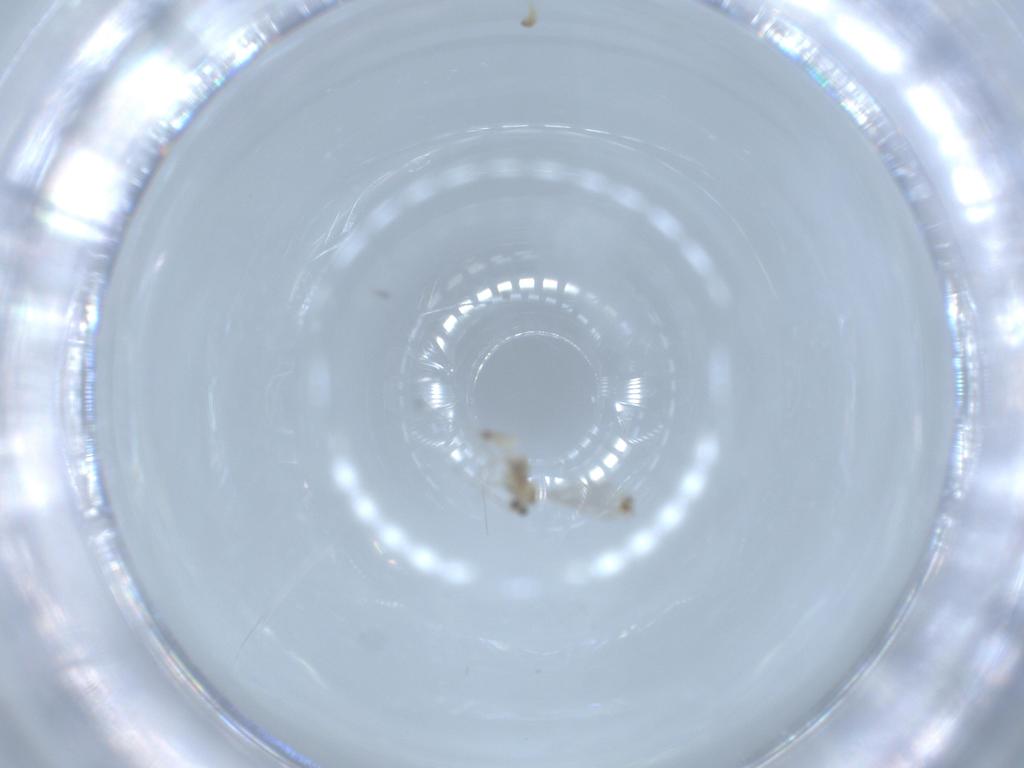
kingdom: Animalia
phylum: Arthropoda
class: Insecta
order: Diptera
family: Cecidomyiidae
